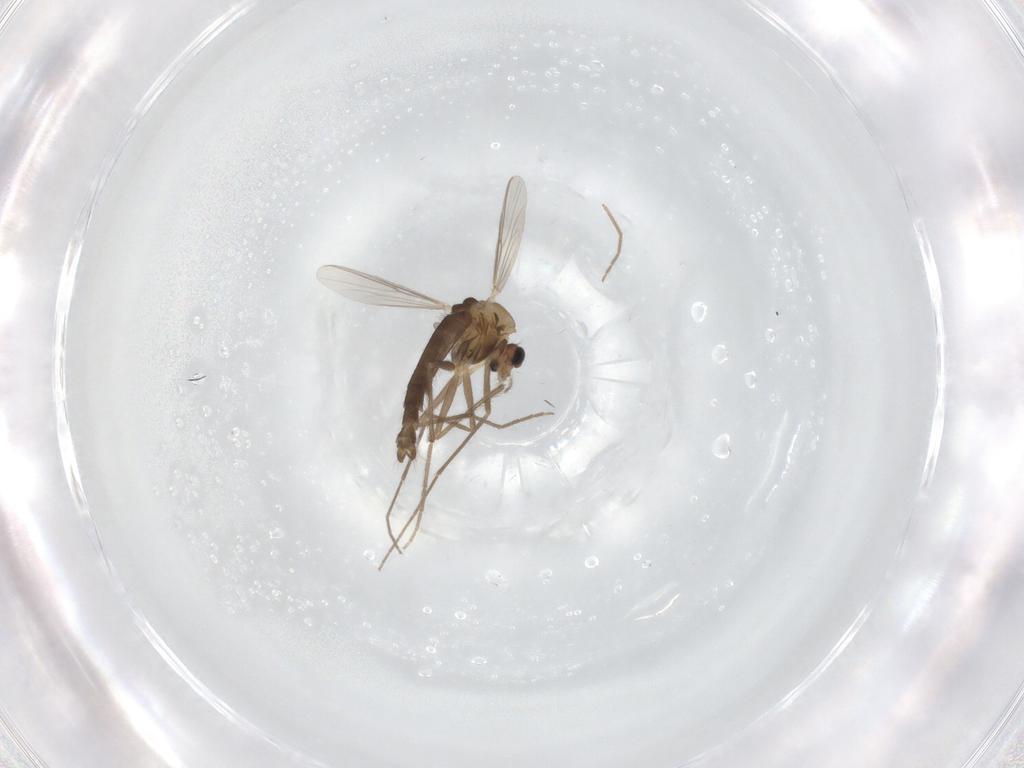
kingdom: Animalia
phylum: Arthropoda
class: Insecta
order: Diptera
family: Chironomidae
